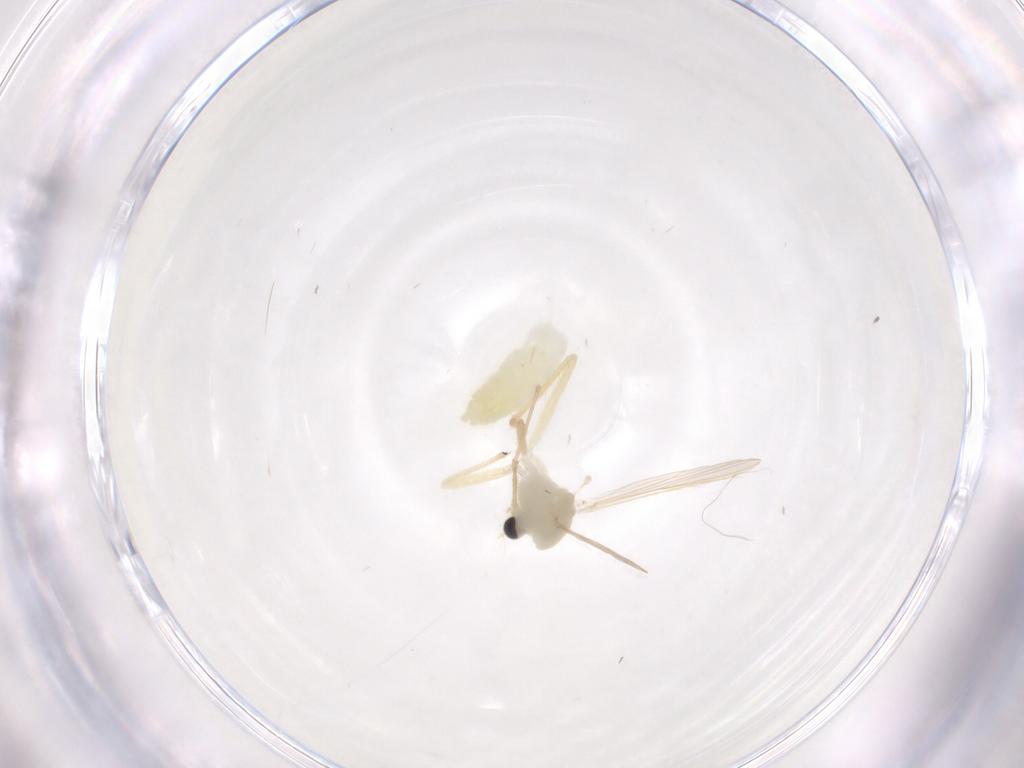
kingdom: Animalia
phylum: Arthropoda
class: Insecta
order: Diptera
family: Chironomidae
